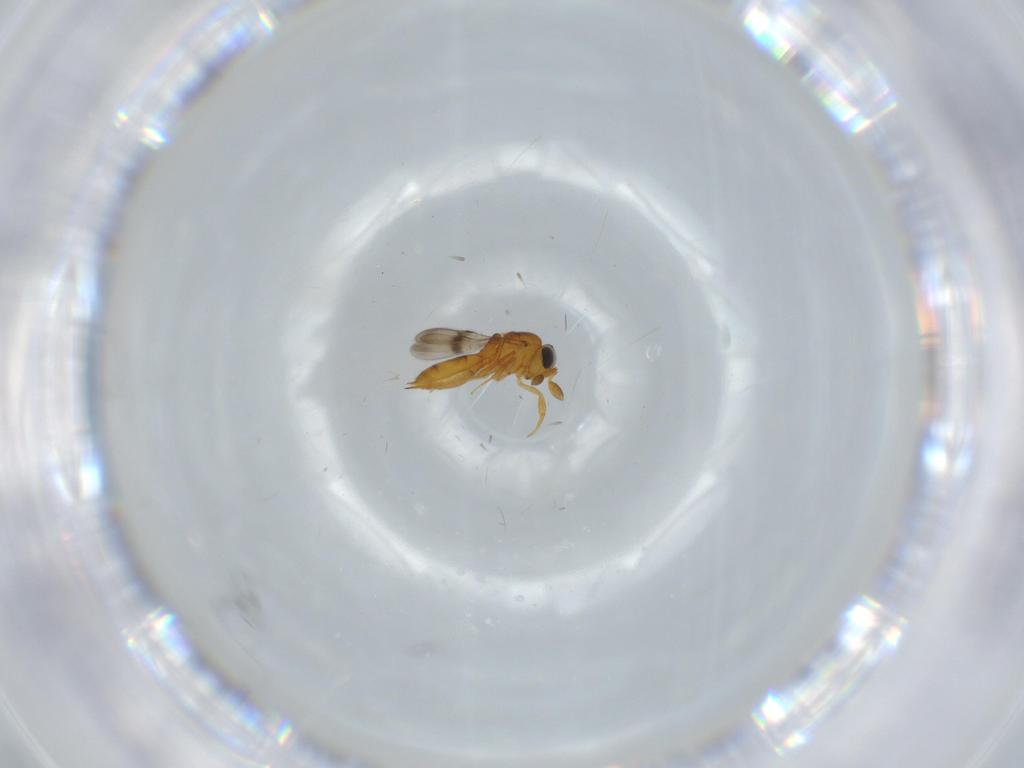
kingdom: Animalia
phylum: Arthropoda
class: Insecta
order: Hymenoptera
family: Scelionidae
